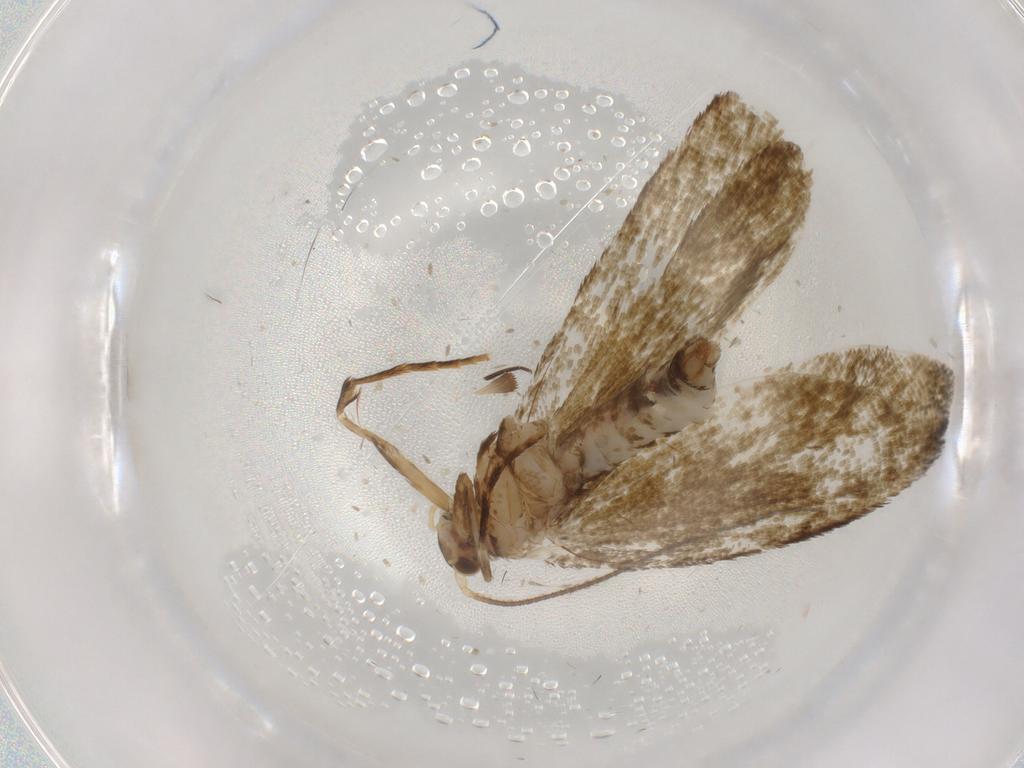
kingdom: Animalia
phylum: Arthropoda
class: Insecta
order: Lepidoptera
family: Tineidae
